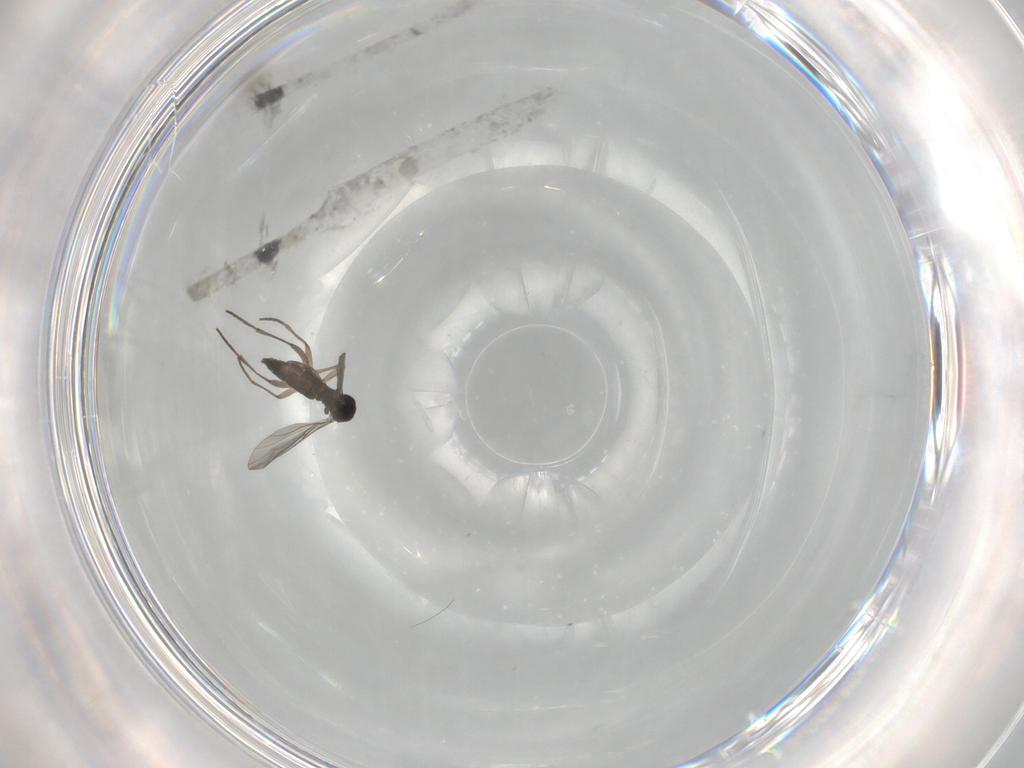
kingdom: Animalia
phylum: Arthropoda
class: Insecta
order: Diptera
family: Sciaridae
